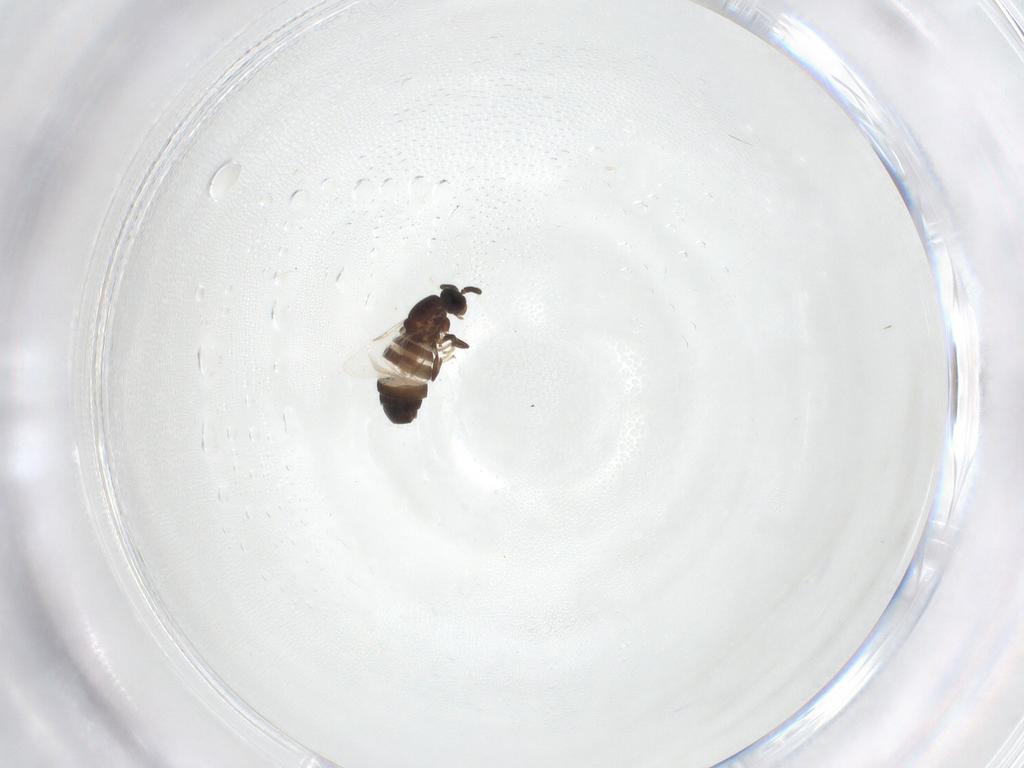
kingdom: Animalia
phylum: Arthropoda
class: Insecta
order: Diptera
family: Scatopsidae
